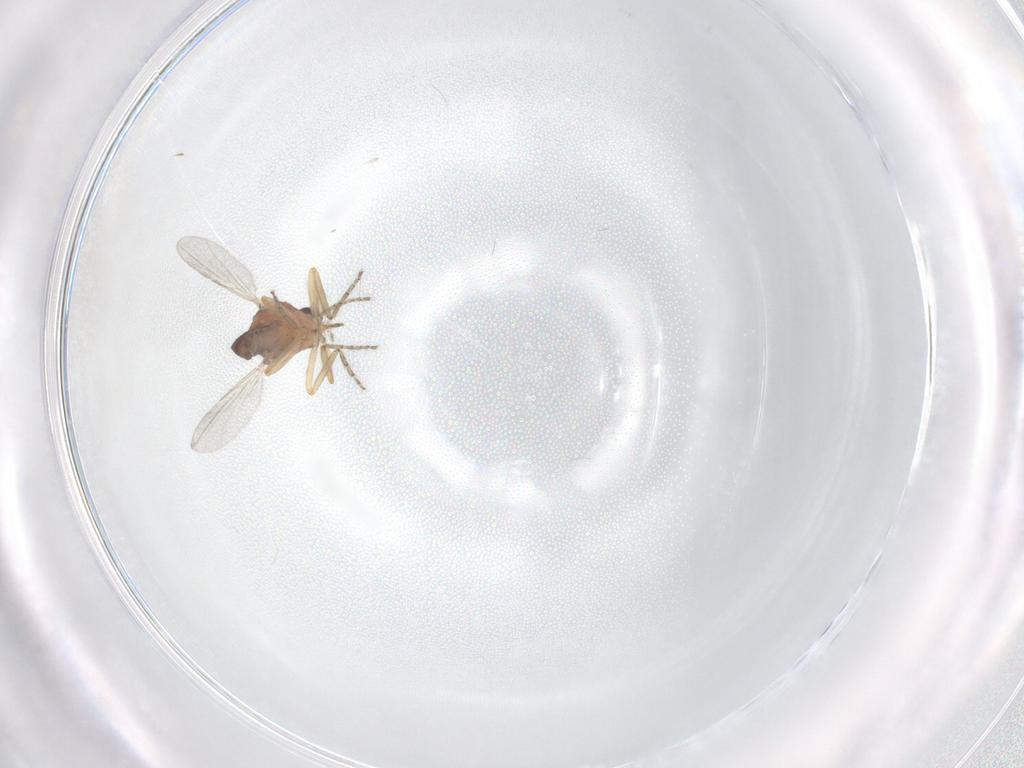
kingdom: Animalia
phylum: Arthropoda
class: Insecta
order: Diptera
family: Ceratopogonidae
